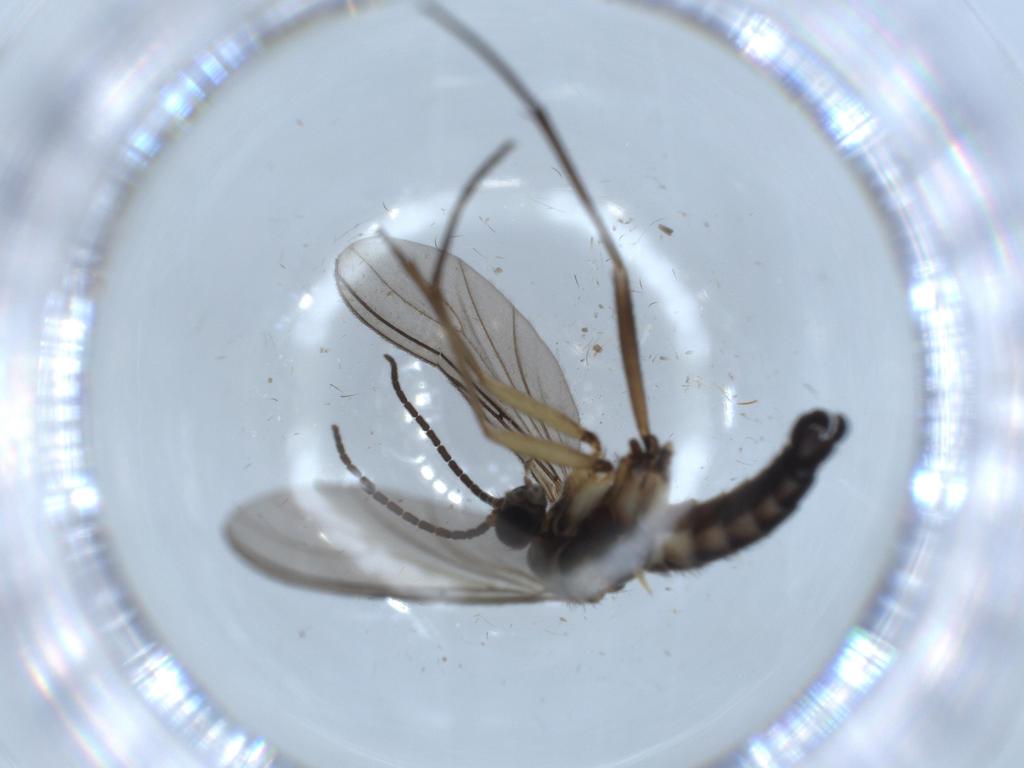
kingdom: Animalia
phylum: Arthropoda
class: Insecta
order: Diptera
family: Sciaridae
